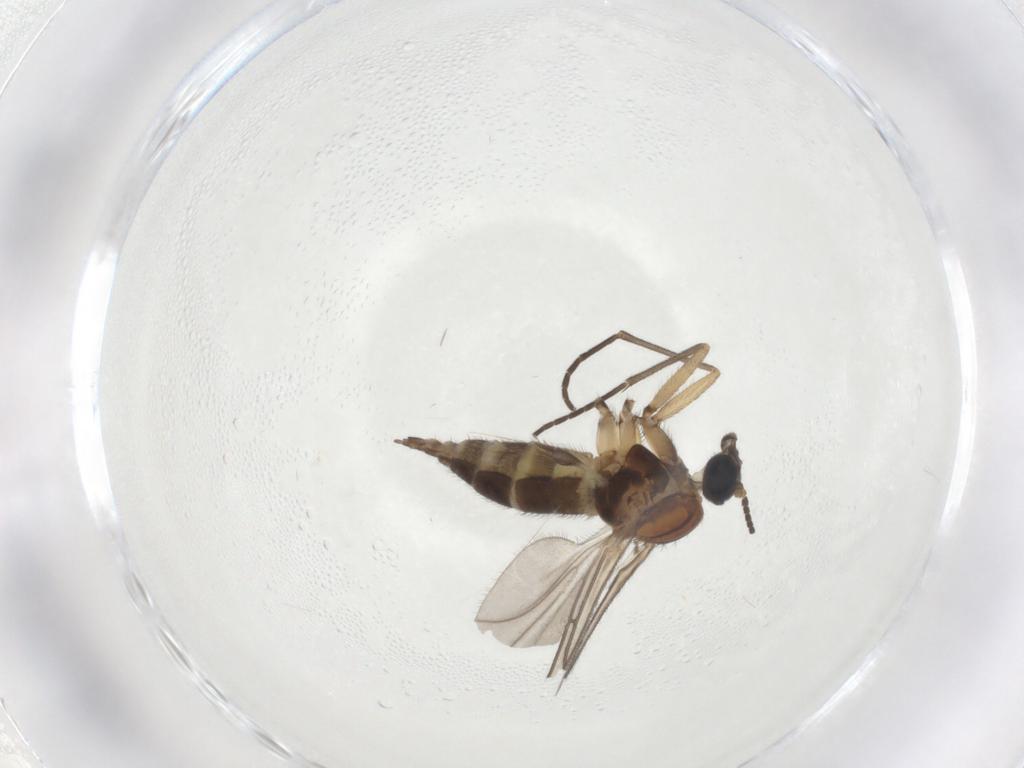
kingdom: Animalia
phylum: Arthropoda
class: Insecta
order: Diptera
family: Sciaridae
